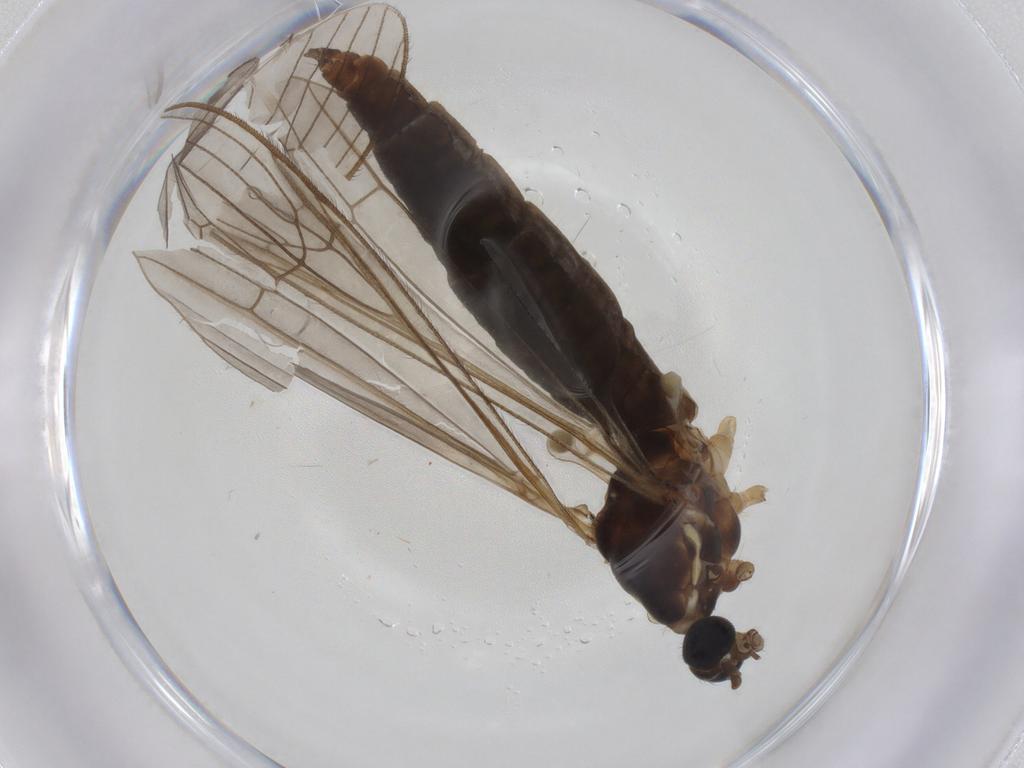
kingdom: Animalia
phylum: Arthropoda
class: Insecta
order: Diptera
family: Limoniidae
